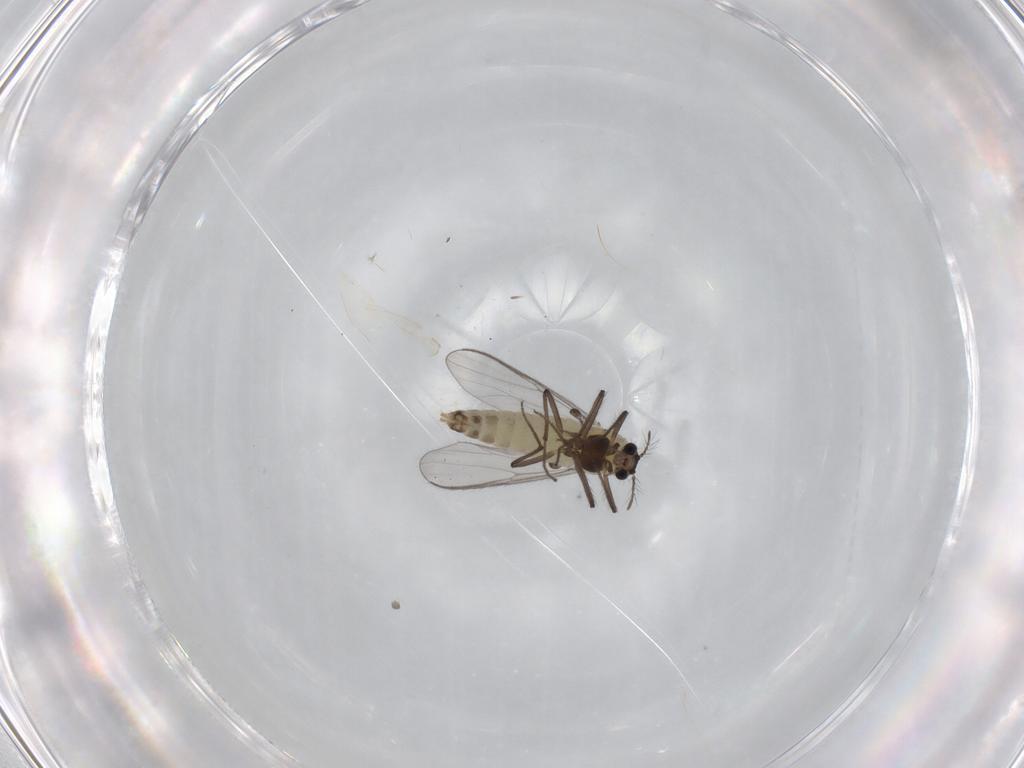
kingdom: Animalia
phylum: Arthropoda
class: Insecta
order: Diptera
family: Chironomidae
